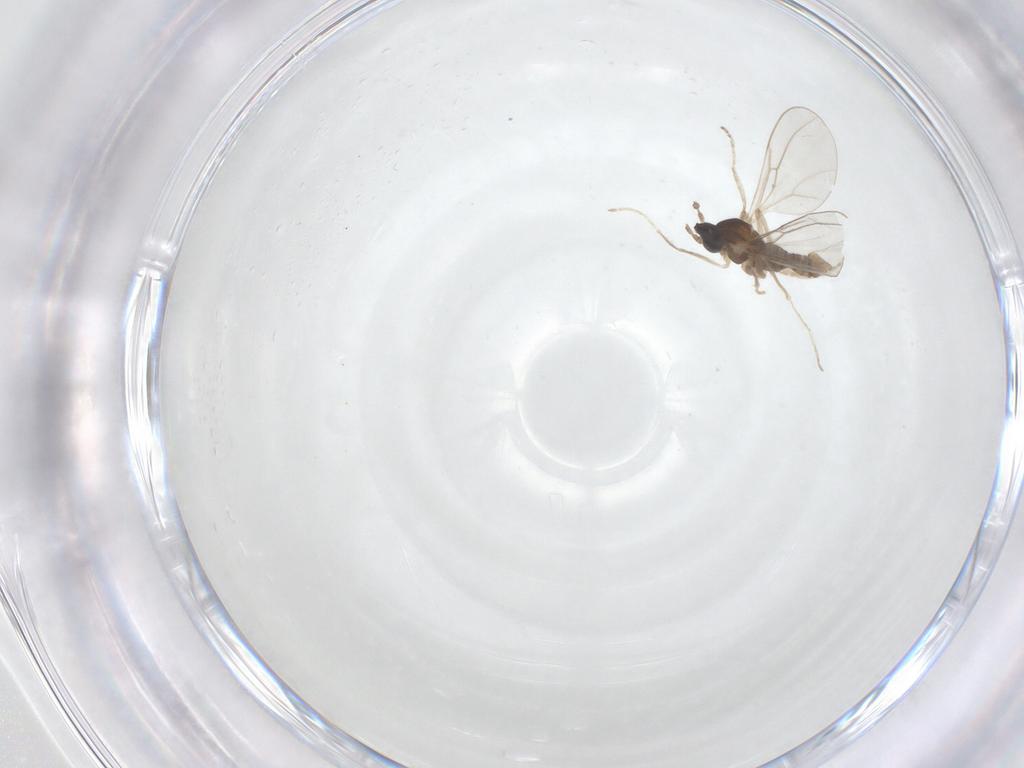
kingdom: Animalia
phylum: Arthropoda
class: Insecta
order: Diptera
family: Cecidomyiidae
